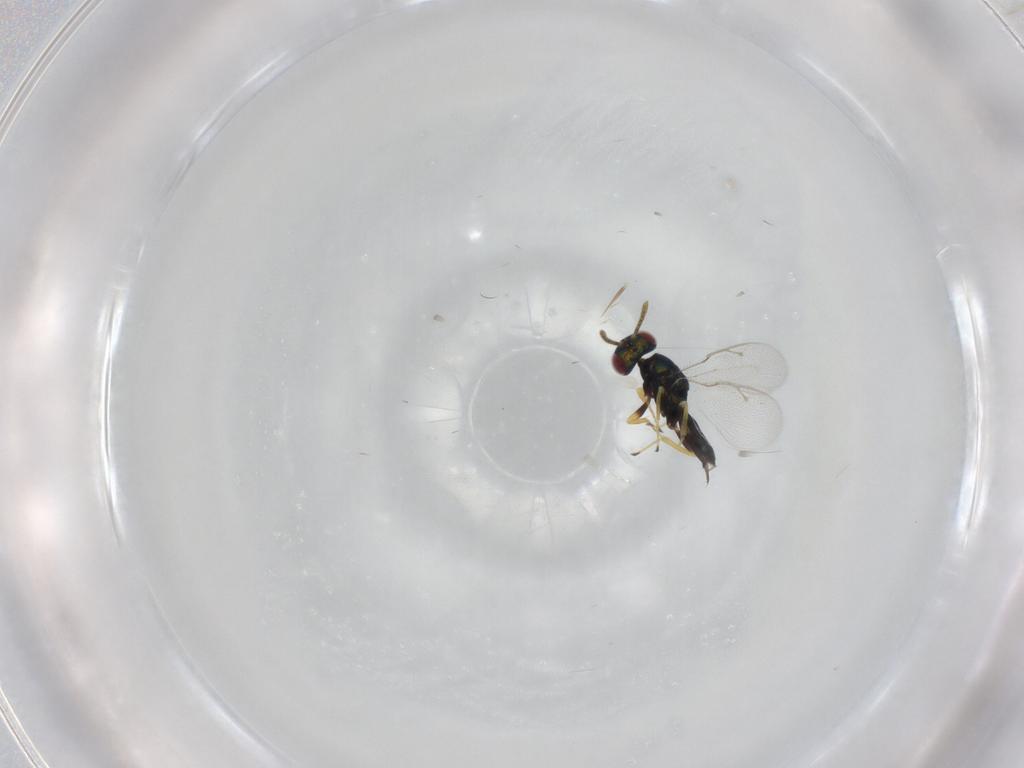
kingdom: Animalia
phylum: Arthropoda
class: Insecta
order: Hymenoptera
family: Pteromalidae
